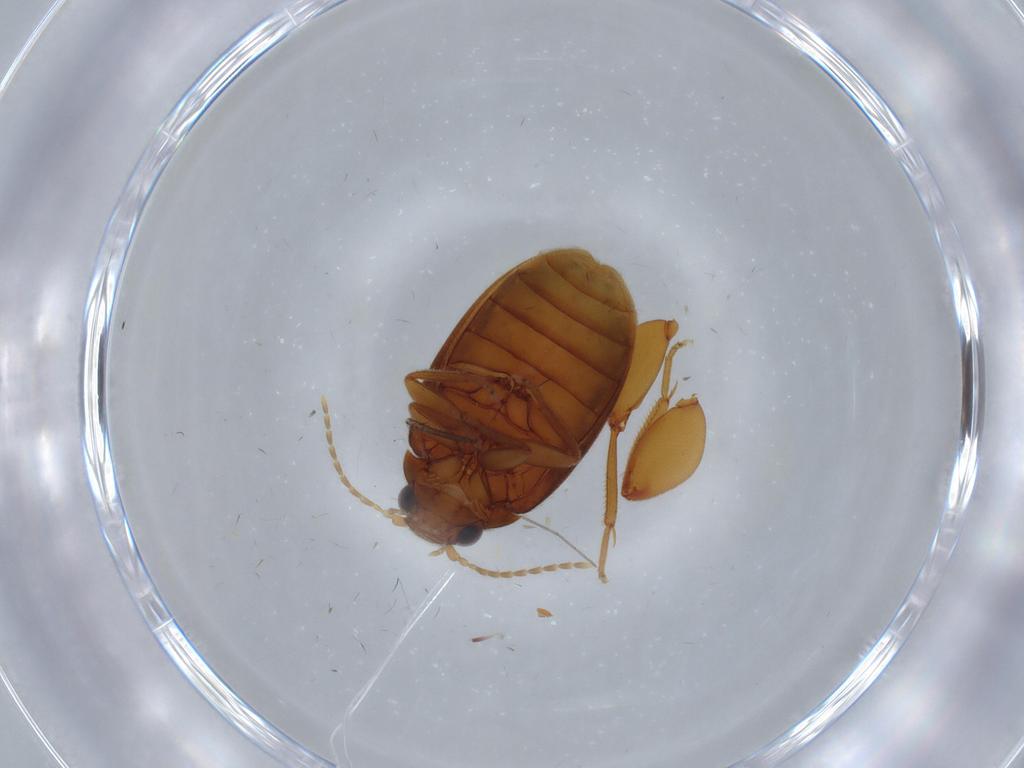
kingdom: Animalia
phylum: Arthropoda
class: Insecta
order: Coleoptera
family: Scirtidae
